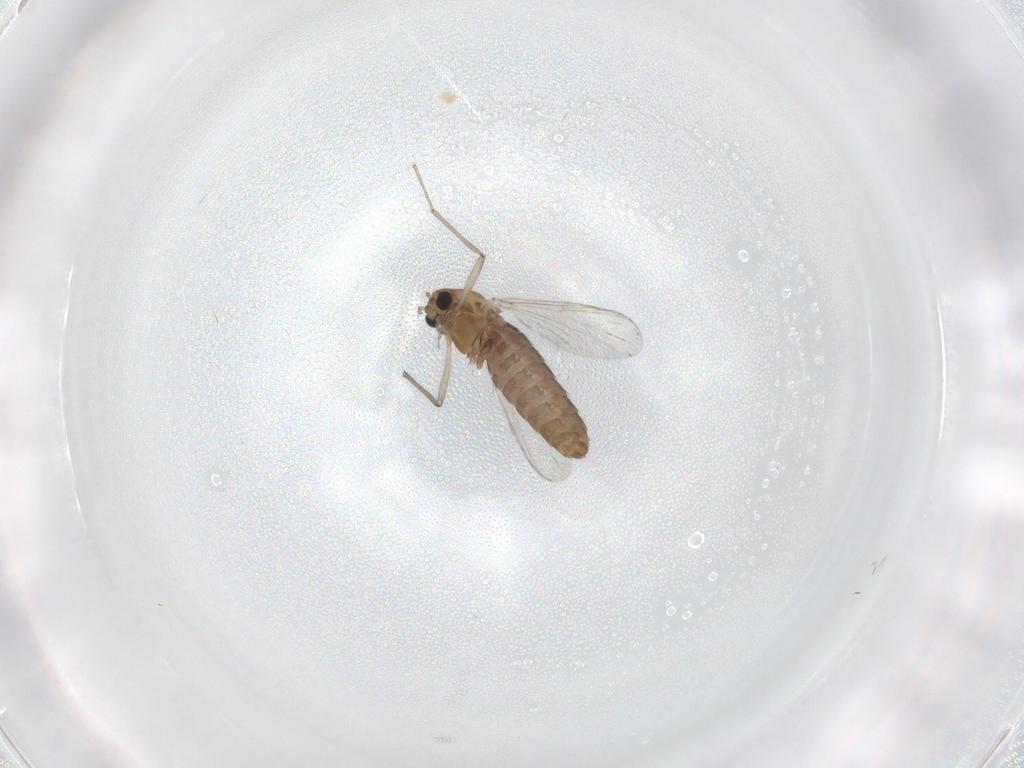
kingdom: Animalia
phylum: Arthropoda
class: Insecta
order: Diptera
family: Chironomidae
